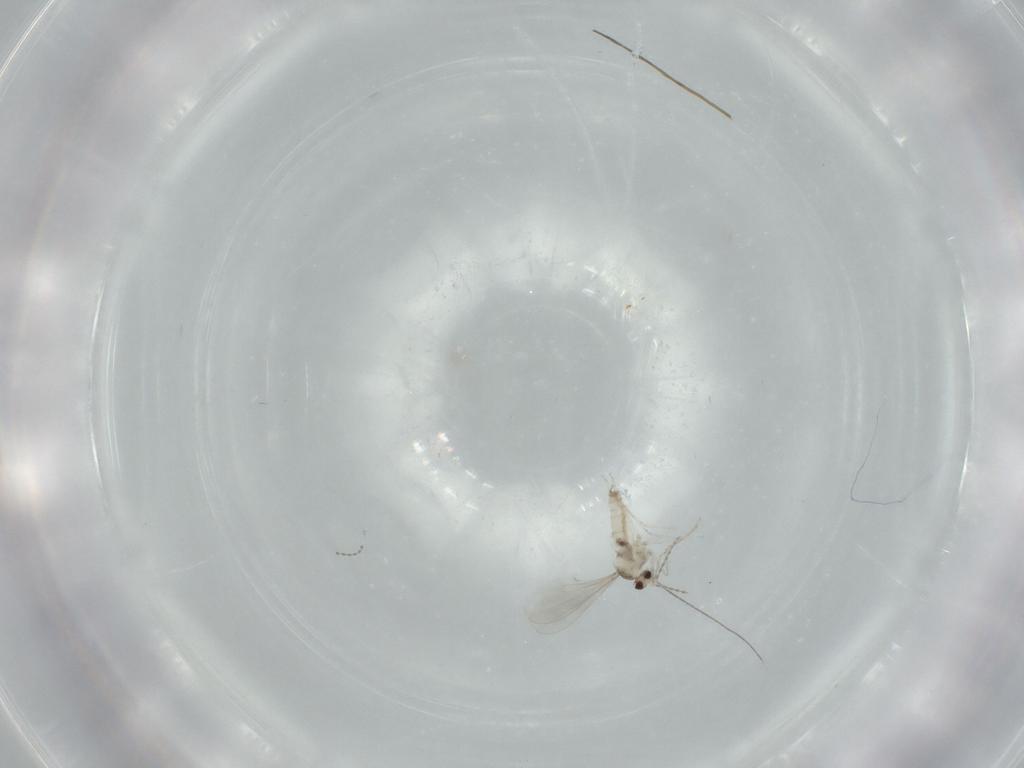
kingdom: Animalia
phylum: Arthropoda
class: Insecta
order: Diptera
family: Cecidomyiidae
